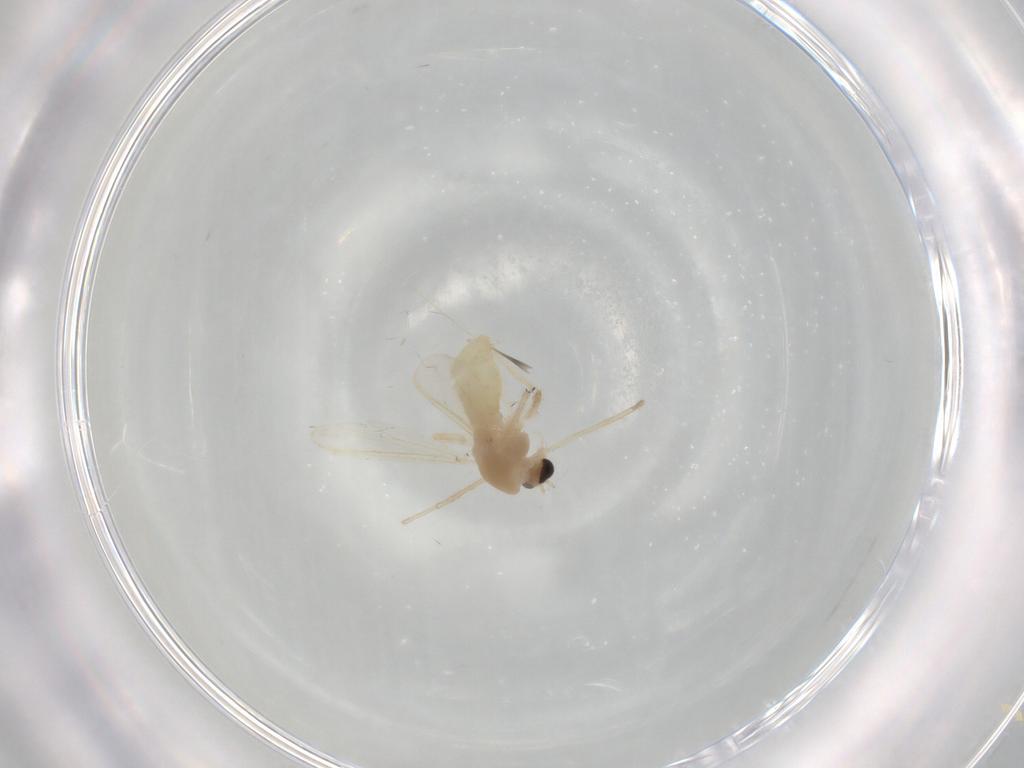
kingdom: Animalia
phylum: Arthropoda
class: Insecta
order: Diptera
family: Chironomidae
